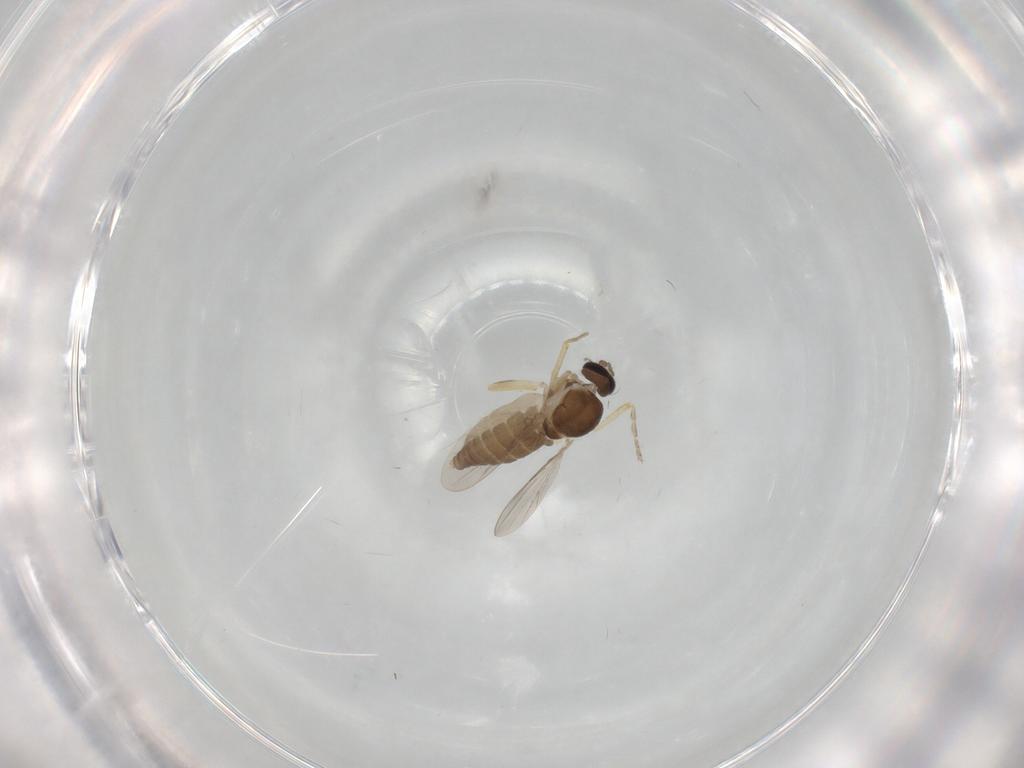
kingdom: Animalia
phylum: Arthropoda
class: Insecta
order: Diptera
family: Ceratopogonidae
